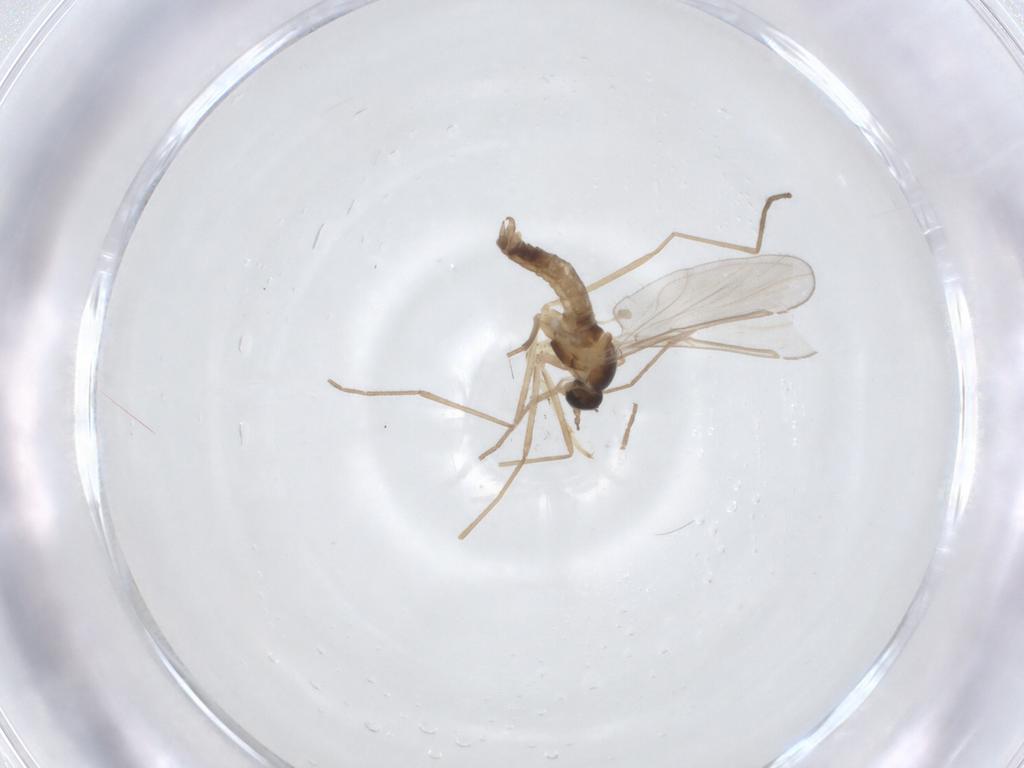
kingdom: Animalia
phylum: Arthropoda
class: Insecta
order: Diptera
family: Cecidomyiidae
